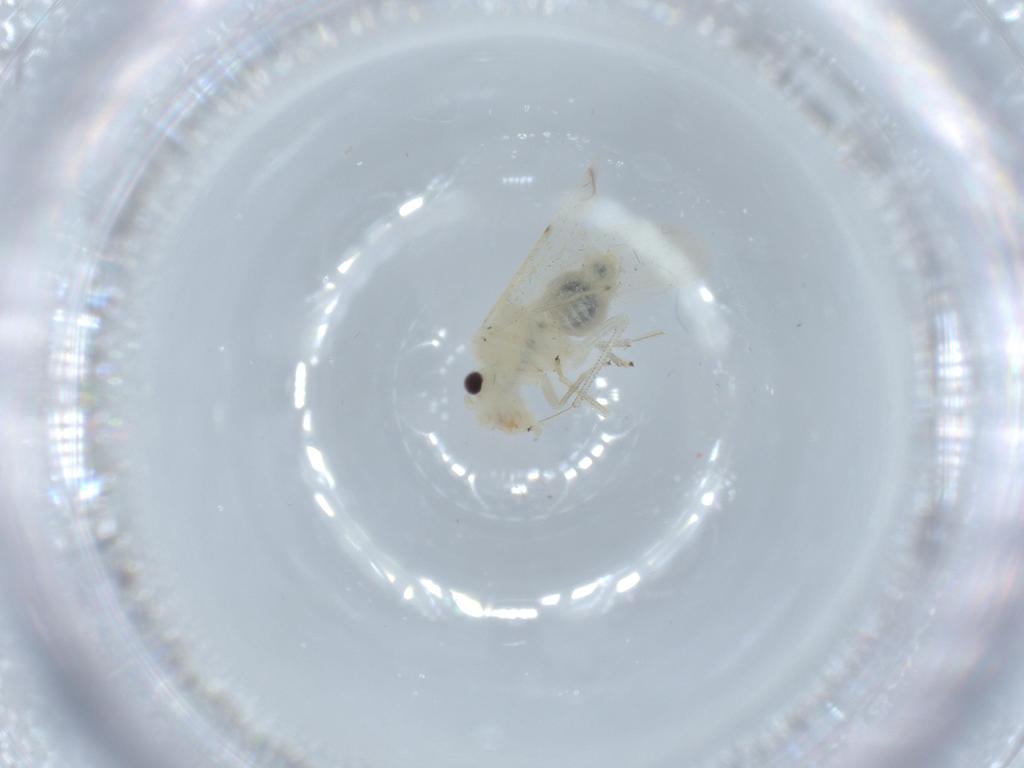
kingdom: Animalia
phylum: Arthropoda
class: Insecta
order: Psocodea
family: Caeciliusidae
